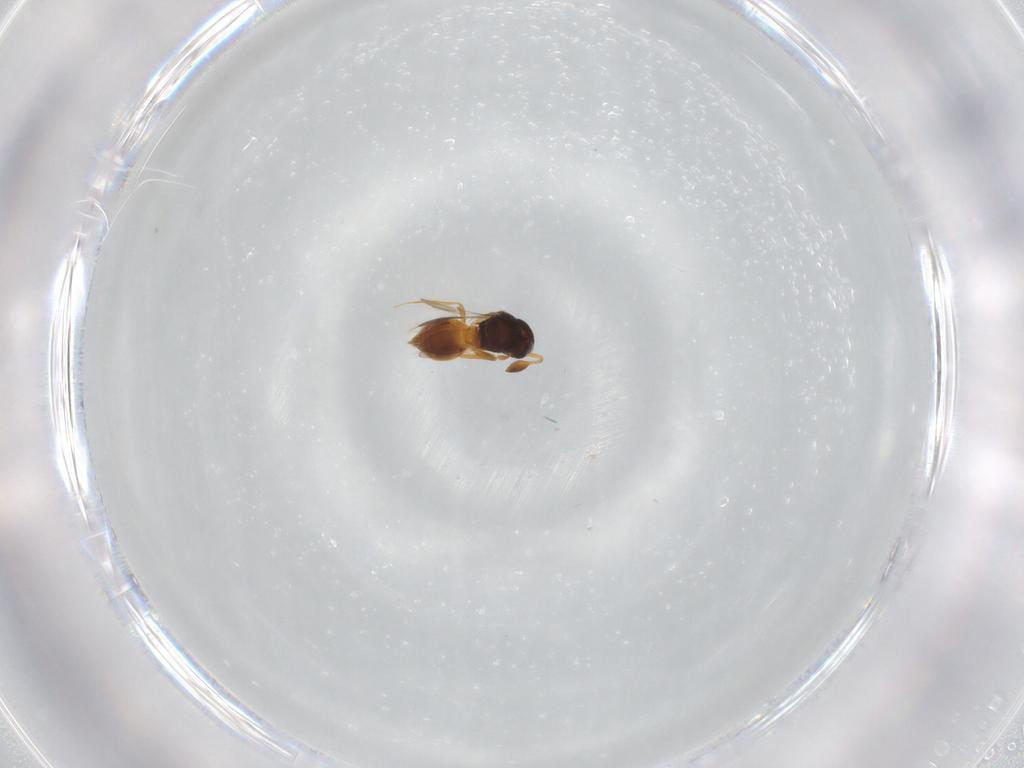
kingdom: Animalia
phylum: Arthropoda
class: Insecta
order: Hymenoptera
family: Scelionidae
